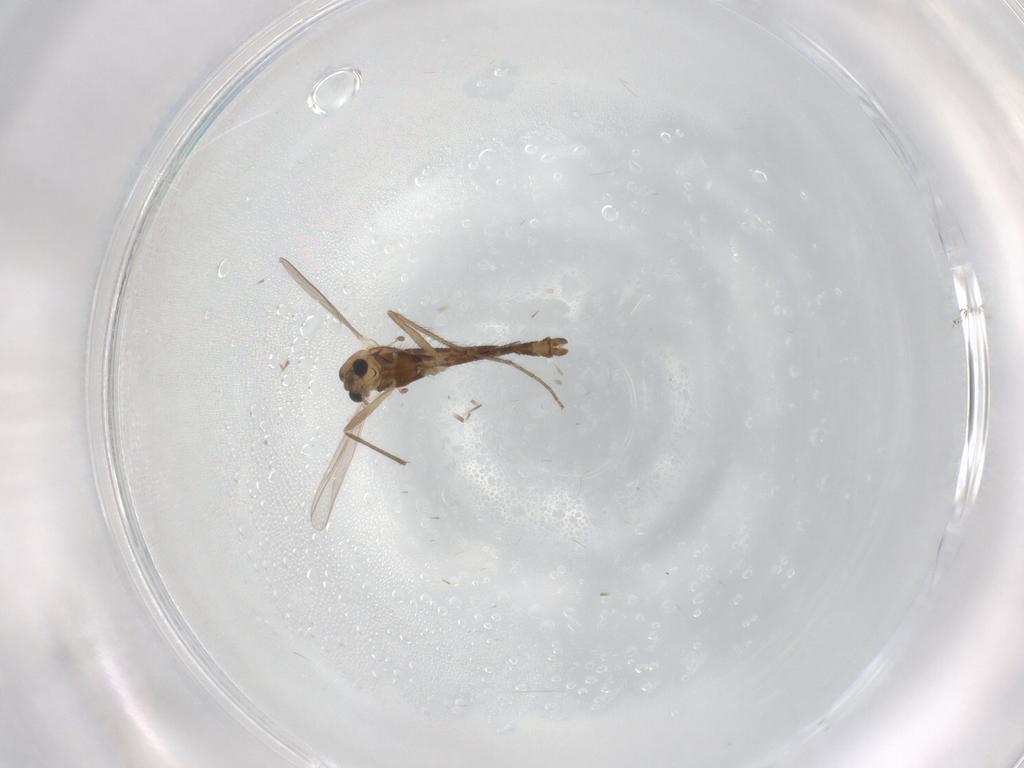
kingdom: Animalia
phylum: Arthropoda
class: Insecta
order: Diptera
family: Chironomidae
